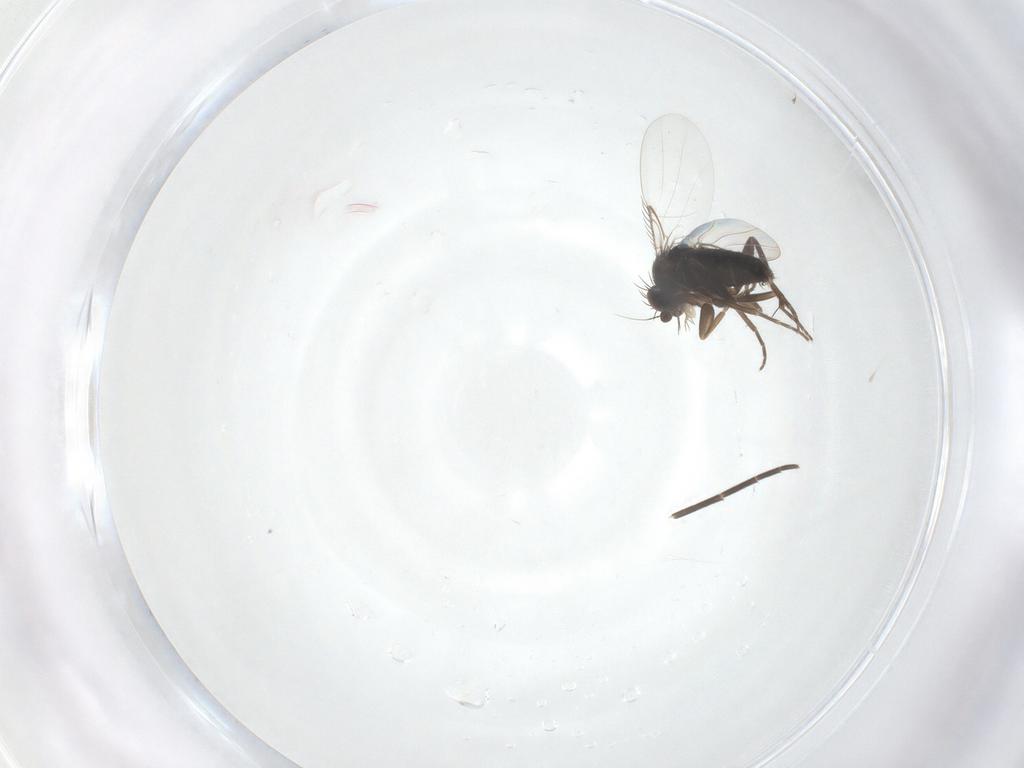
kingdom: Animalia
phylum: Arthropoda
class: Insecta
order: Diptera
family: Phoridae
